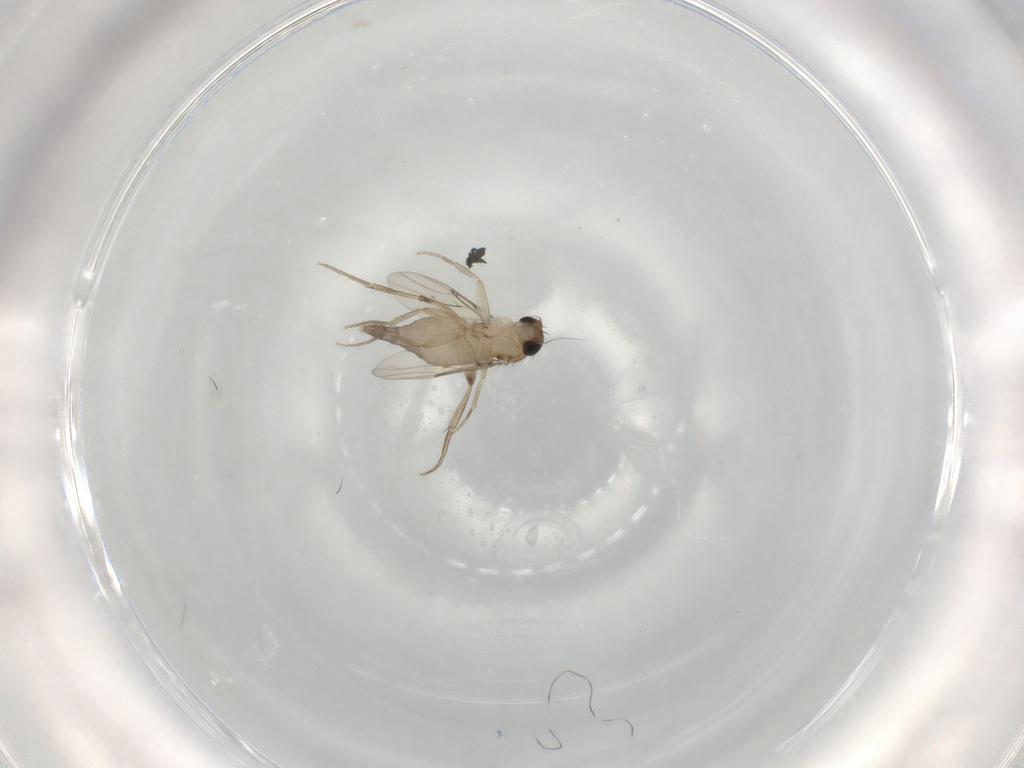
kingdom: Animalia
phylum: Arthropoda
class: Insecta
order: Diptera
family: Phoridae
